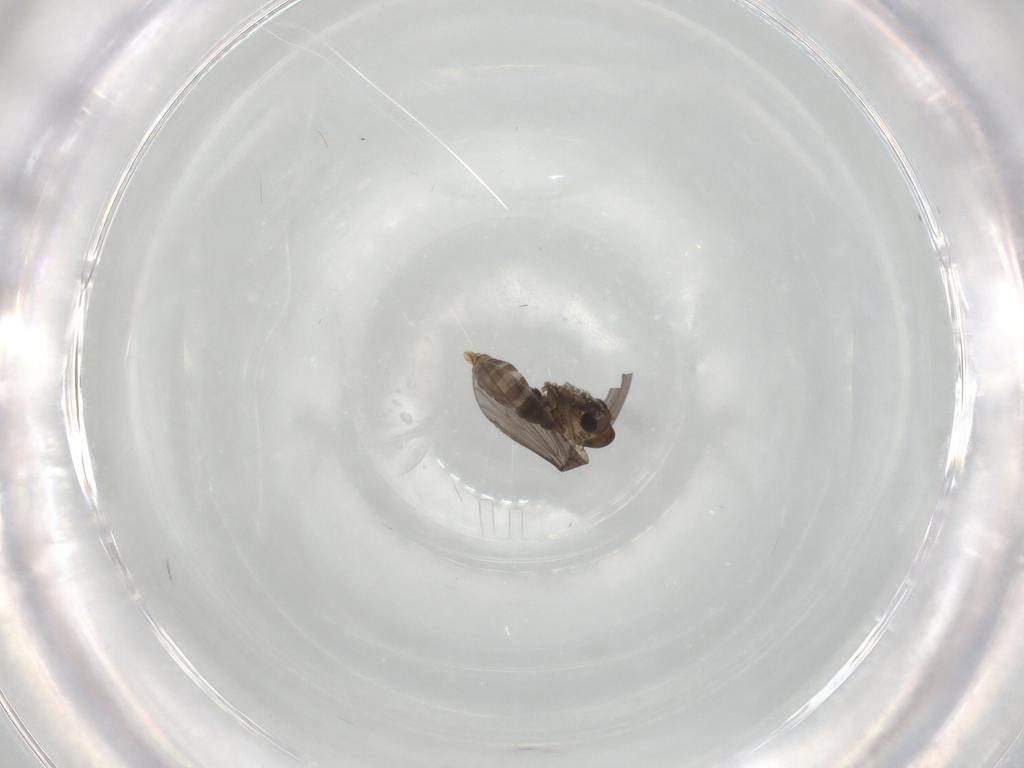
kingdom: Animalia
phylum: Arthropoda
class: Insecta
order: Diptera
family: Psychodidae
